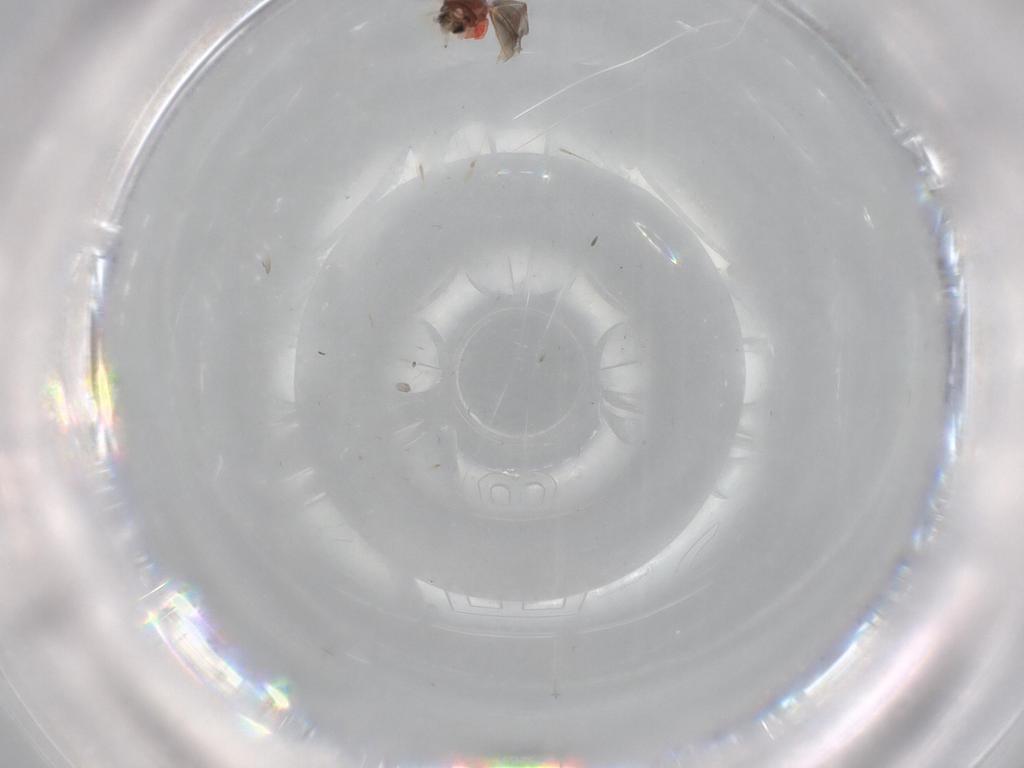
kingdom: Animalia
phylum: Arthropoda
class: Insecta
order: Hemiptera
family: Aleyrodidae
